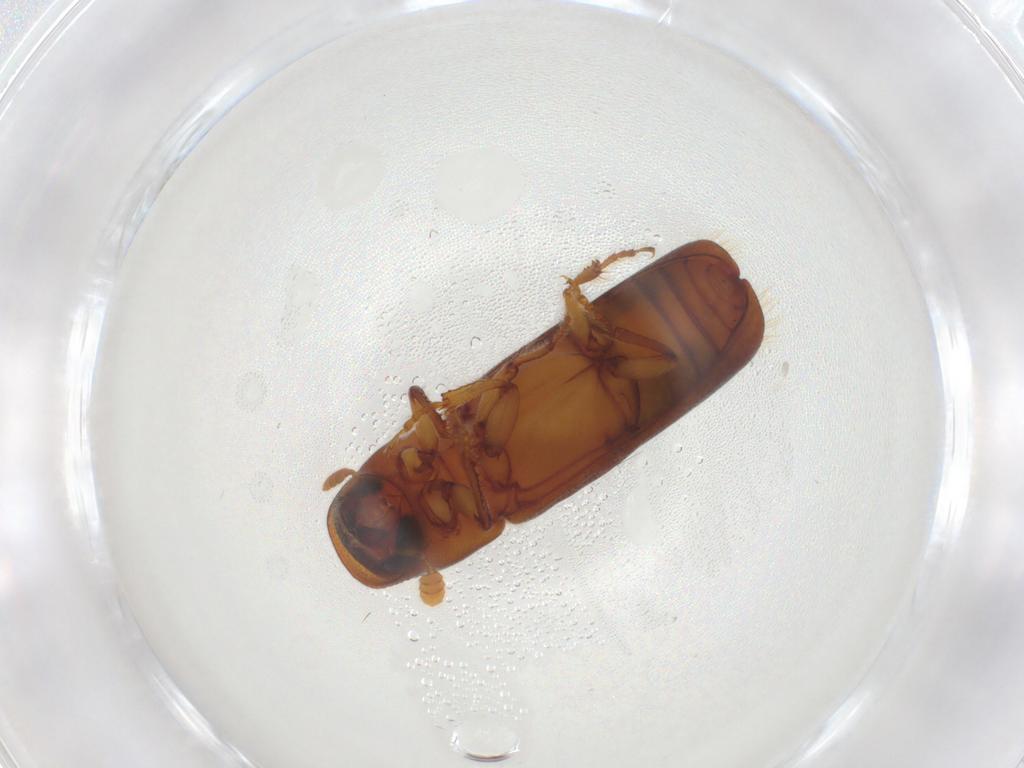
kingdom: Animalia
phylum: Arthropoda
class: Insecta
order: Coleoptera
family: Curculionidae
